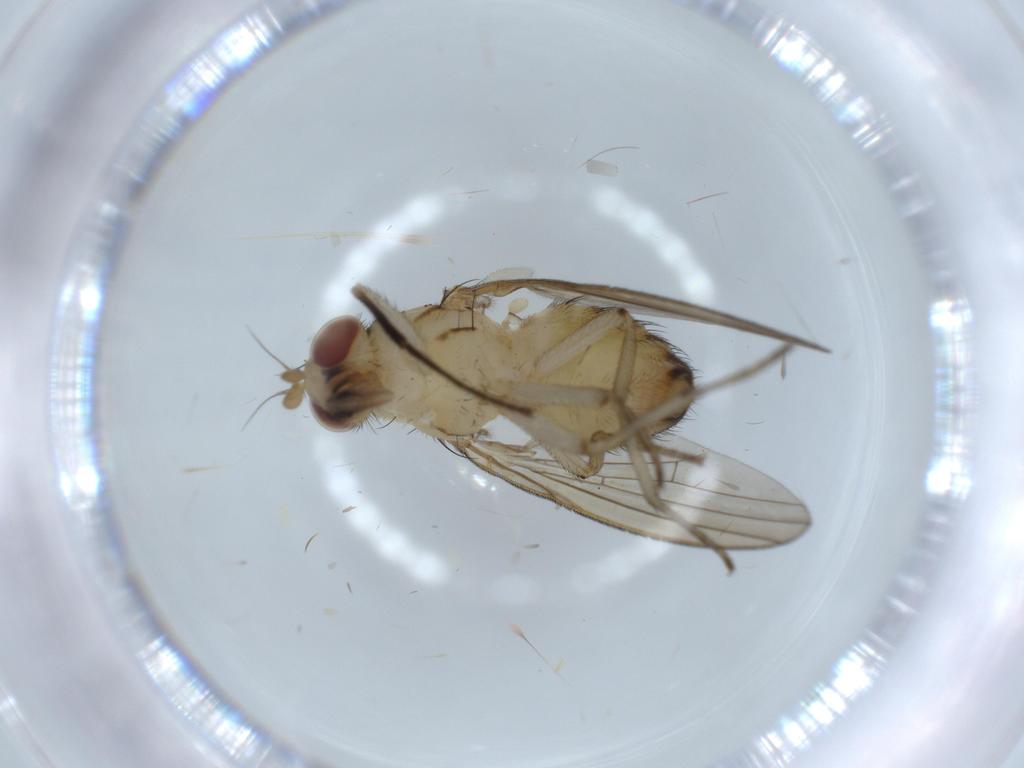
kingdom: Animalia
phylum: Arthropoda
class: Insecta
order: Diptera
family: Lauxaniidae
